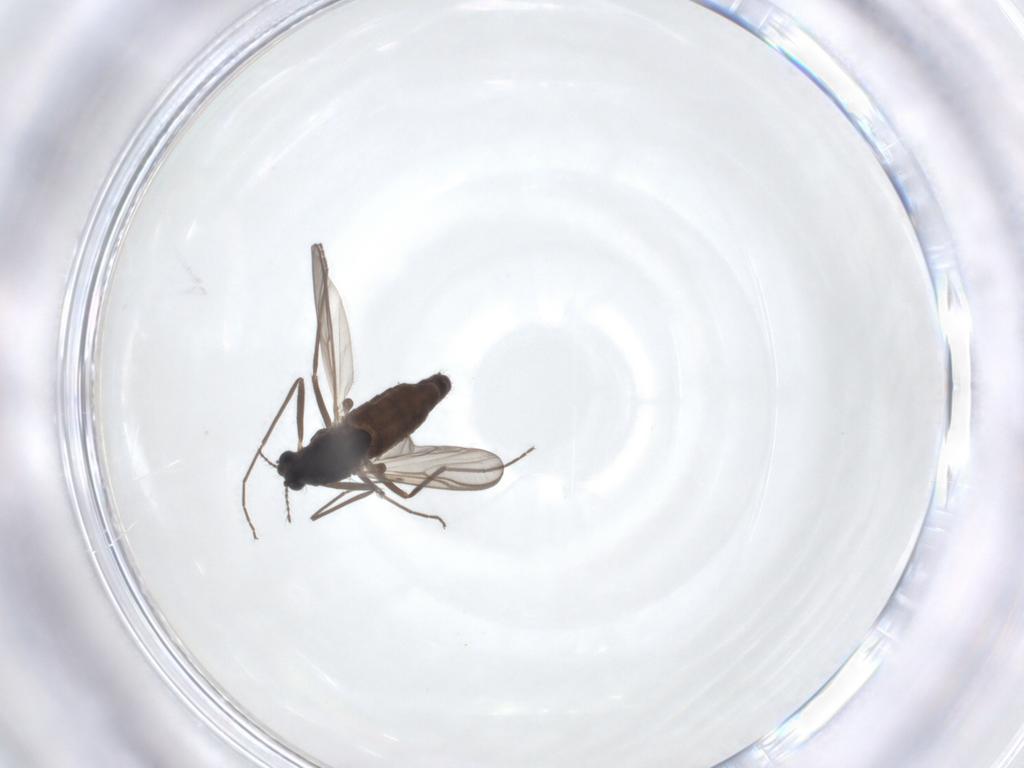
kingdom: Animalia
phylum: Arthropoda
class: Insecta
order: Diptera
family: Chironomidae
